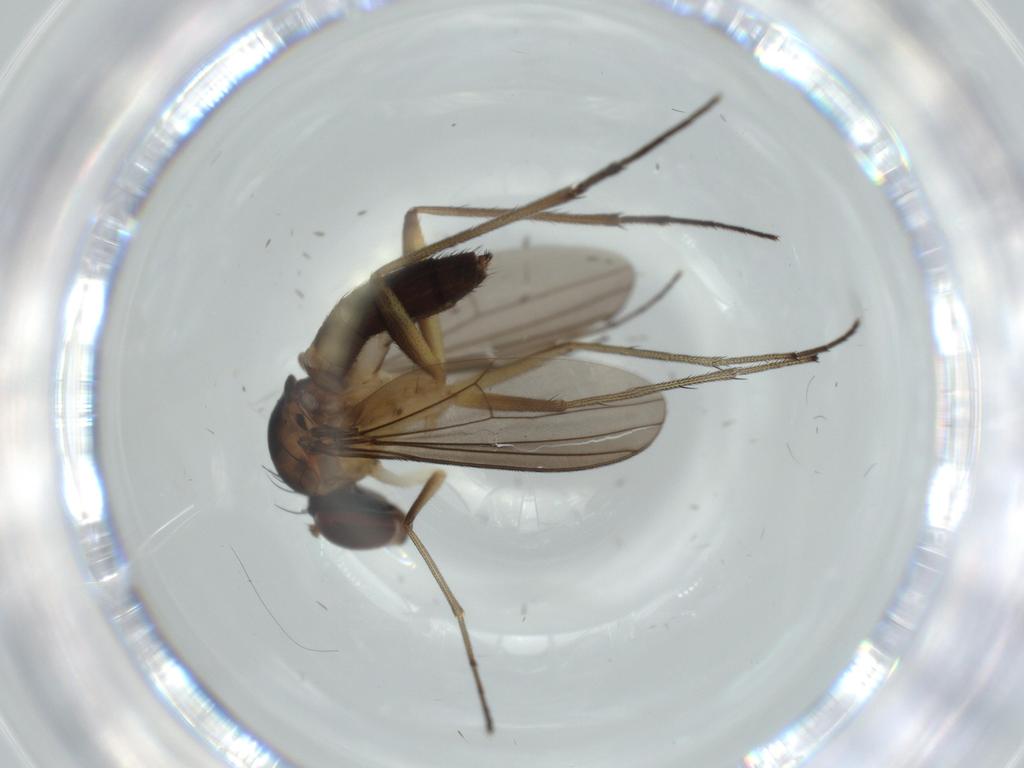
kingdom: Animalia
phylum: Arthropoda
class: Insecta
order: Diptera
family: Dolichopodidae
